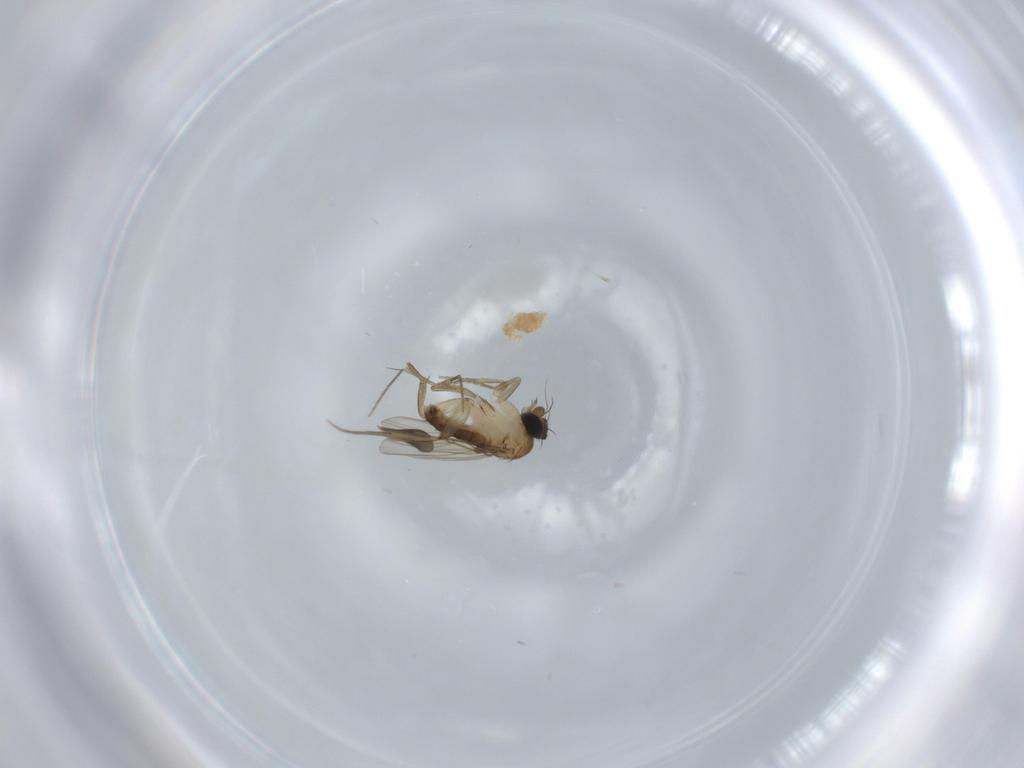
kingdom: Animalia
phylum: Arthropoda
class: Insecta
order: Diptera
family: Phoridae
